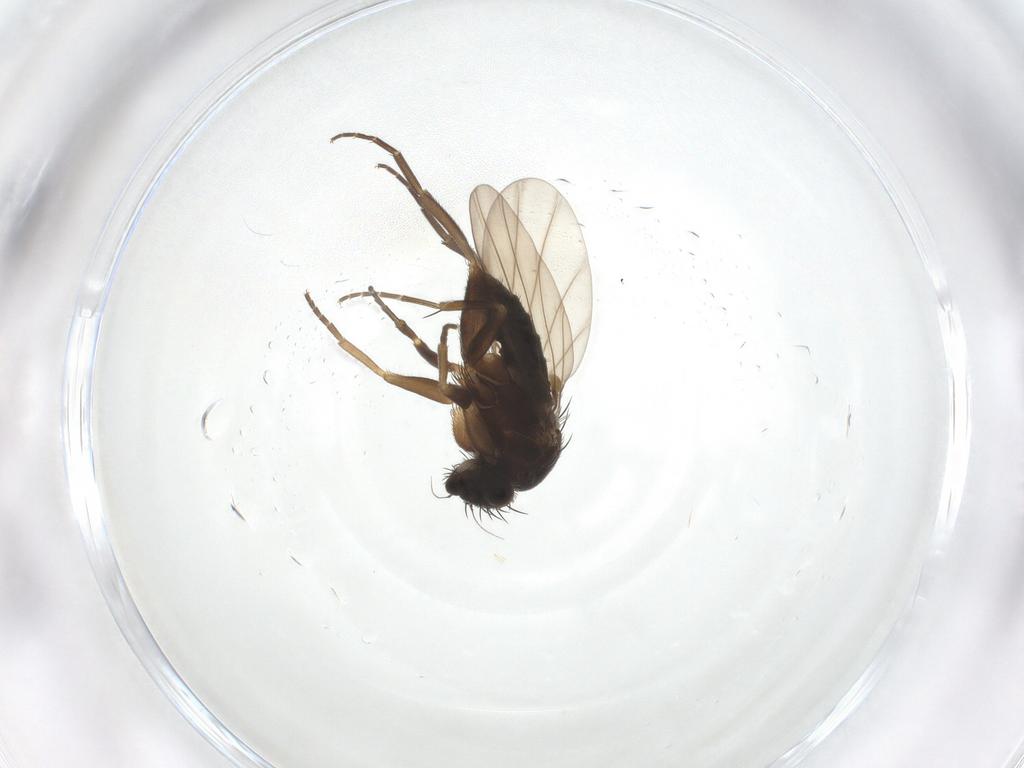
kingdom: Animalia
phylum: Arthropoda
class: Insecta
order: Diptera
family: Phoridae
